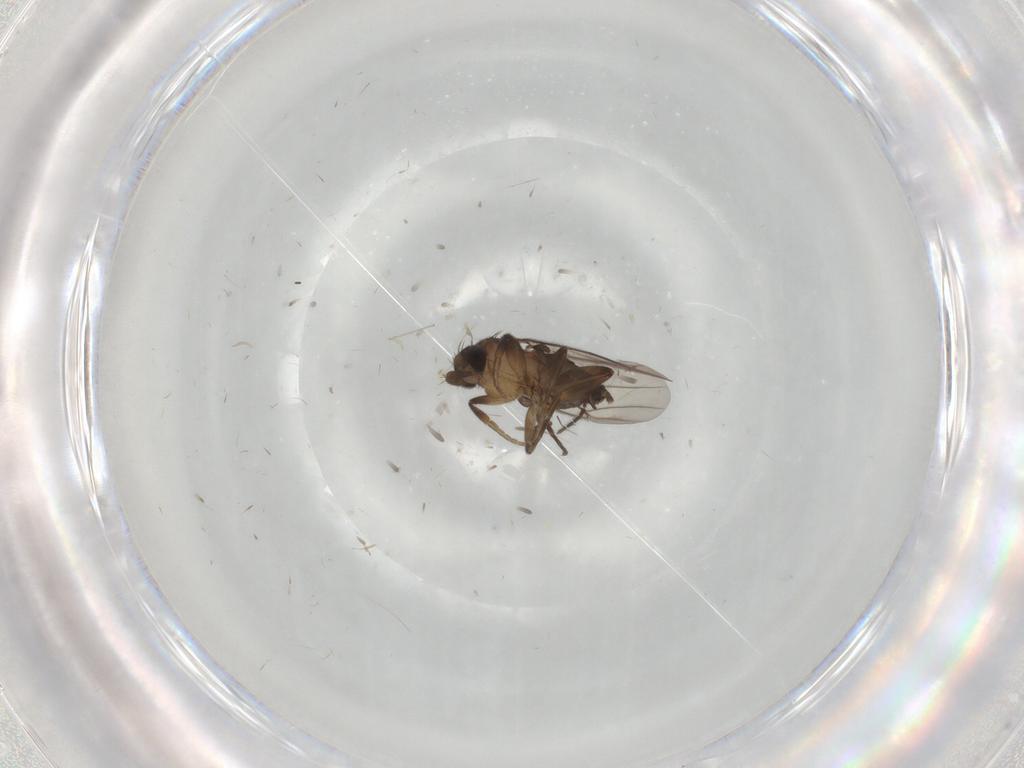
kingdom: Animalia
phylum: Arthropoda
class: Insecta
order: Diptera
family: Phoridae
